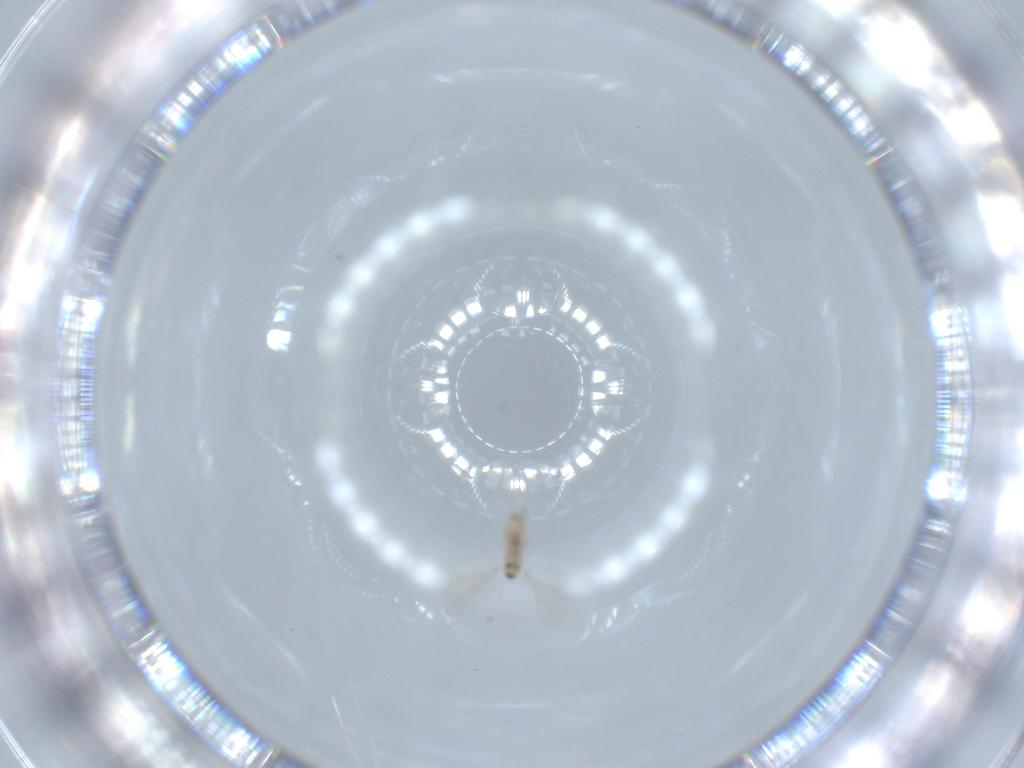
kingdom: Animalia
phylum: Arthropoda
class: Insecta
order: Diptera
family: Cecidomyiidae
